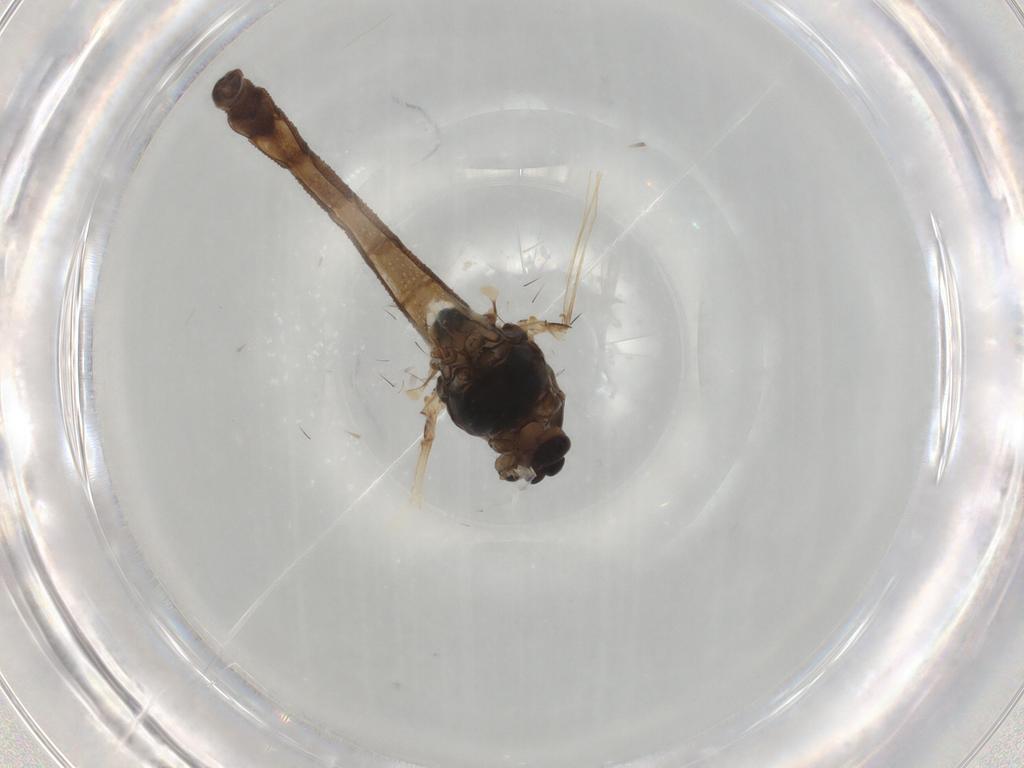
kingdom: Animalia
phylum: Arthropoda
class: Insecta
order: Diptera
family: Chironomidae
